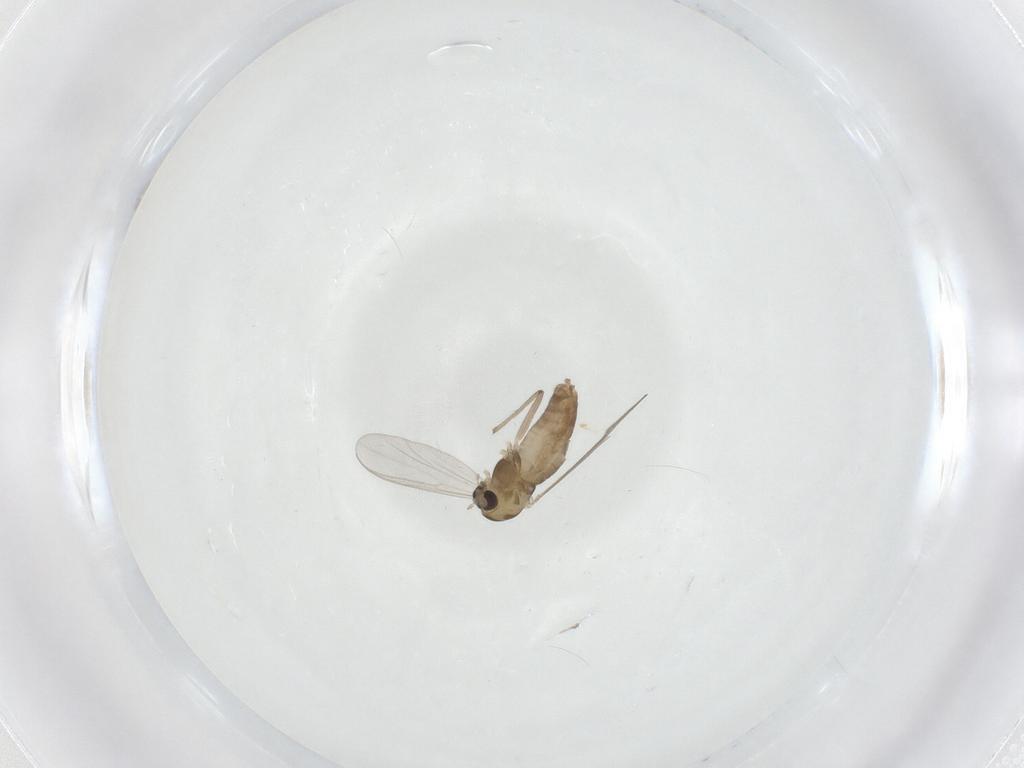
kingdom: Animalia
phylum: Arthropoda
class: Insecta
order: Diptera
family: Chironomidae
